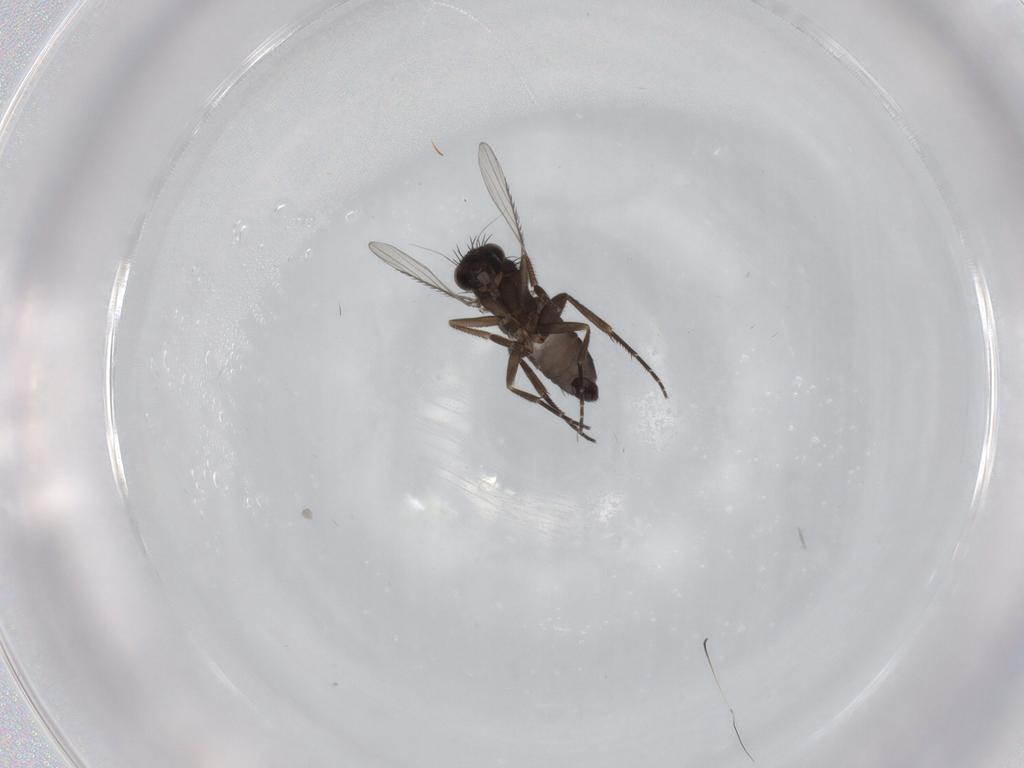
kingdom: Animalia
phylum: Arthropoda
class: Insecta
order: Diptera
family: Phoridae
